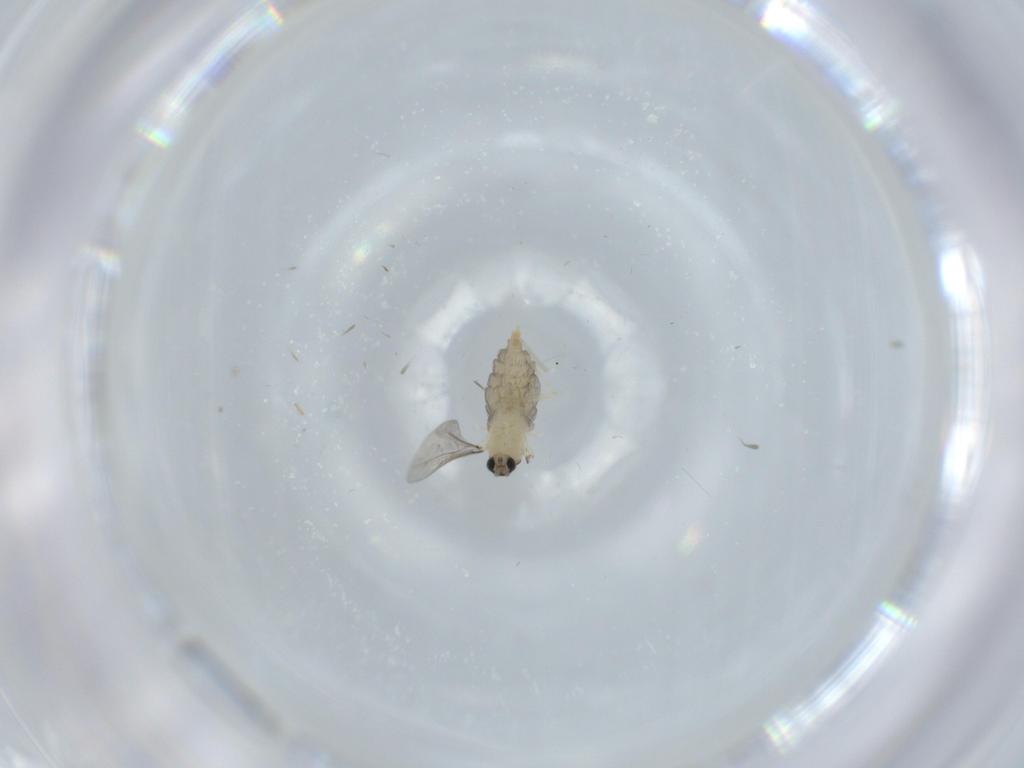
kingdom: Animalia
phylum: Arthropoda
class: Insecta
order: Diptera
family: Chironomidae
